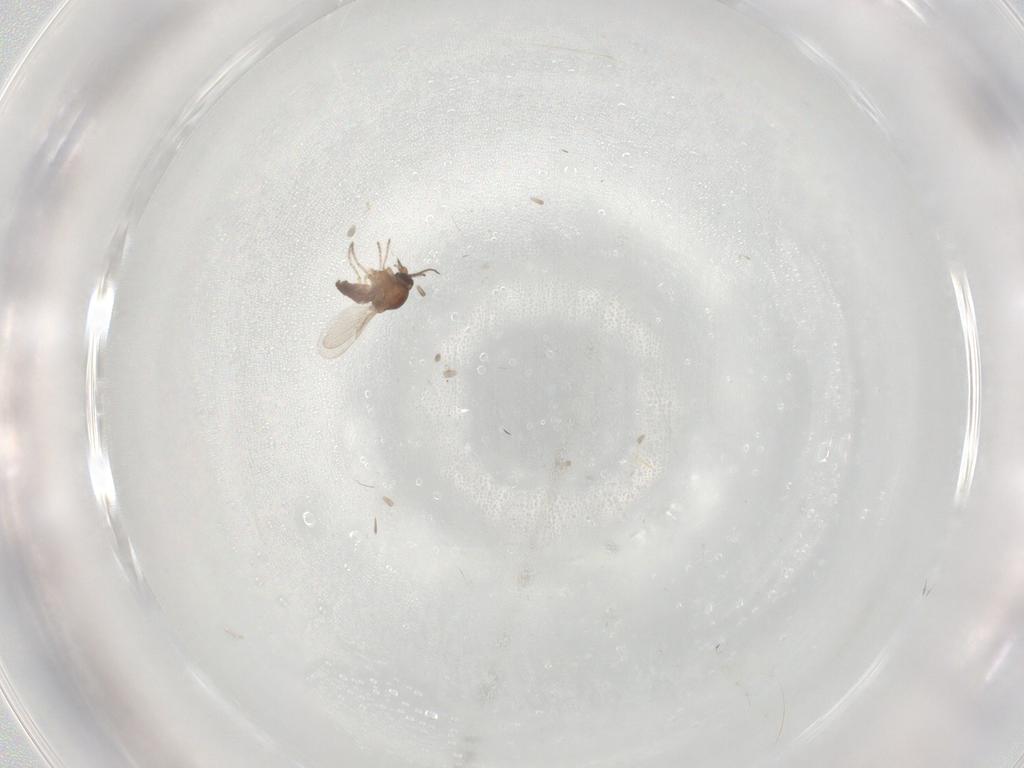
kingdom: Animalia
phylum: Arthropoda
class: Insecta
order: Diptera
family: Ceratopogonidae
